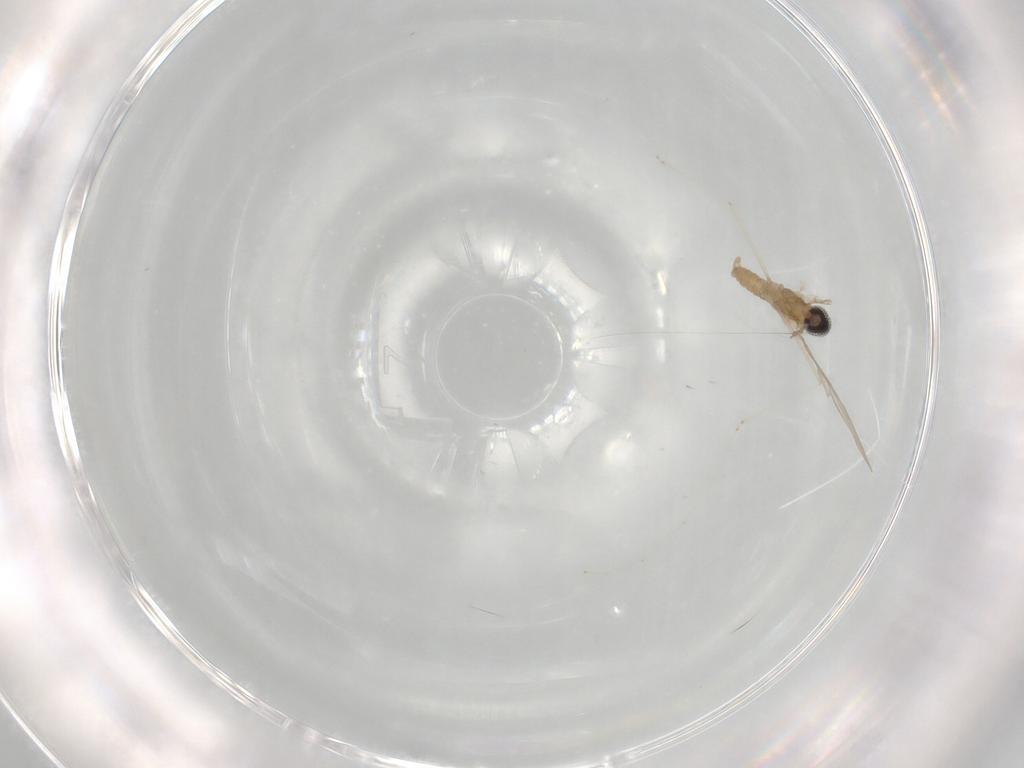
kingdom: Animalia
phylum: Arthropoda
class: Insecta
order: Diptera
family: Cecidomyiidae
